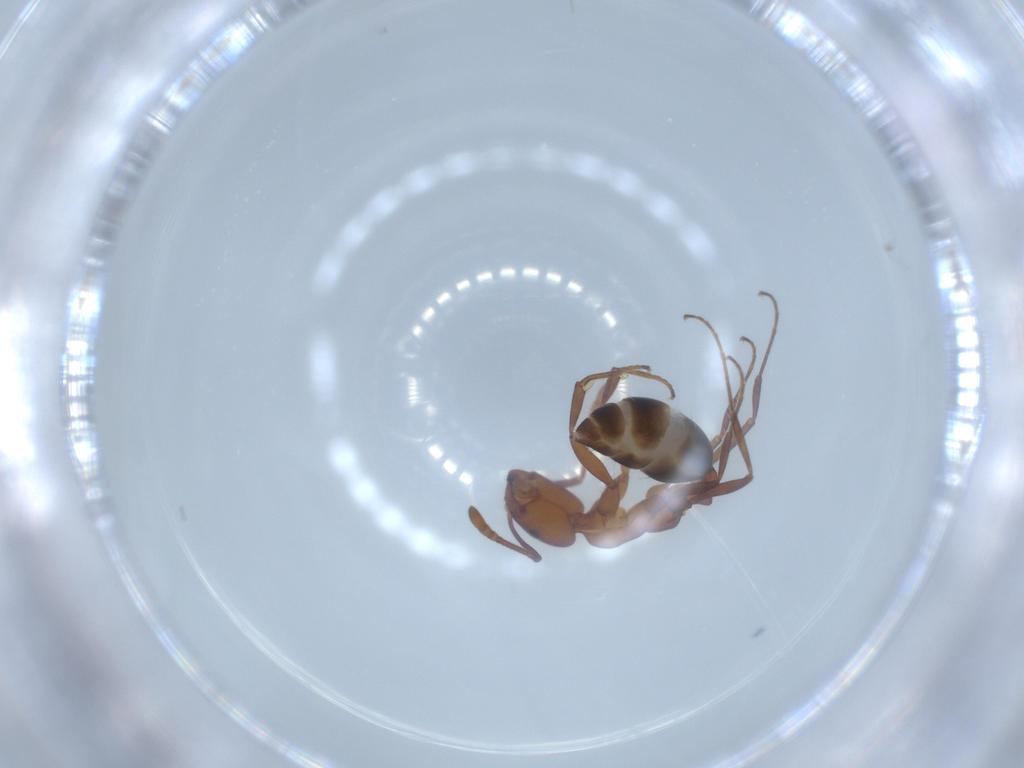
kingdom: Animalia
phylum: Arthropoda
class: Insecta
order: Hymenoptera
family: Formicidae
